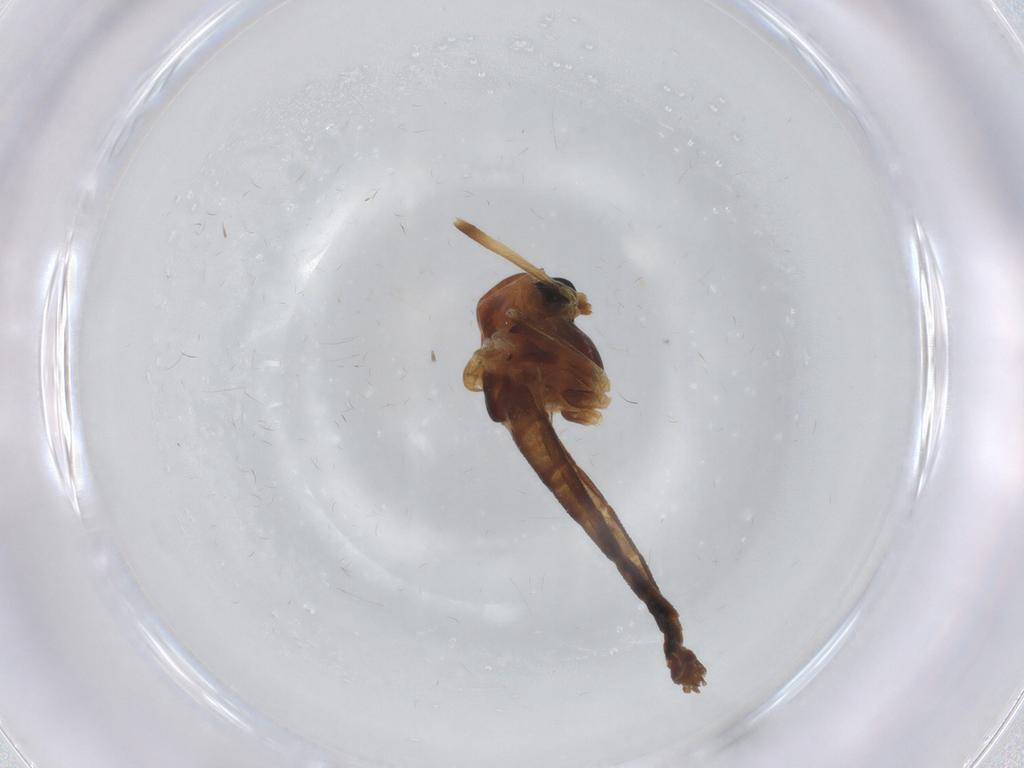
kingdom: Animalia
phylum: Arthropoda
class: Insecta
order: Diptera
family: Chironomidae
